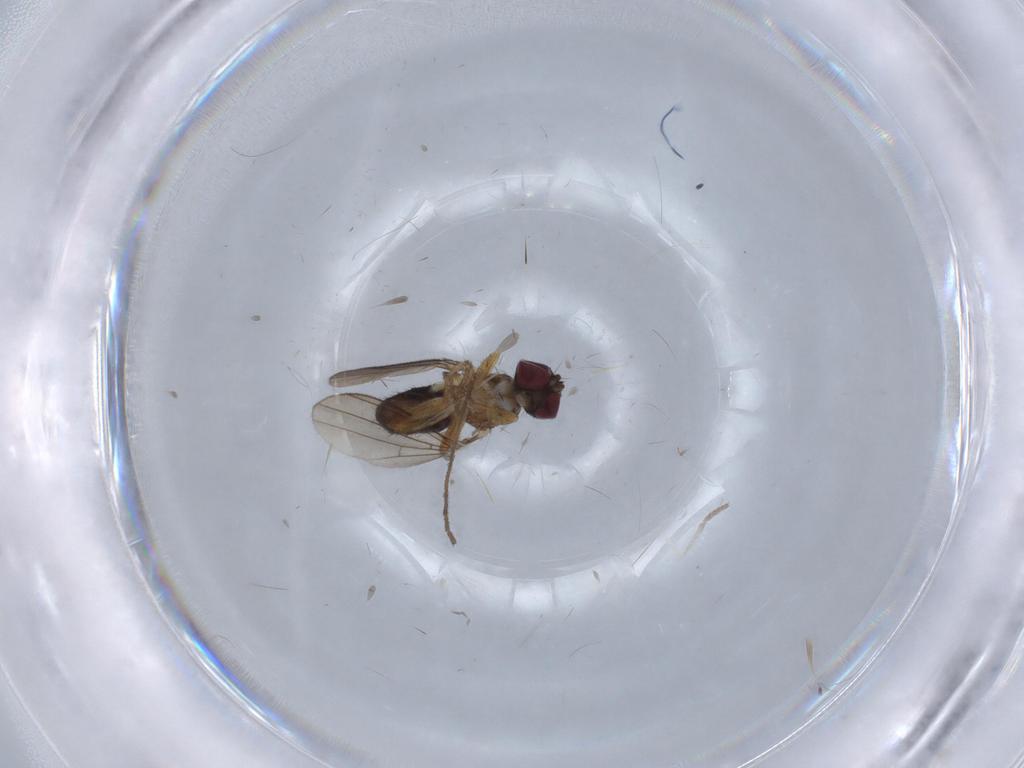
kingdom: Animalia
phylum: Arthropoda
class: Insecta
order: Diptera
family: Anthomyzidae
